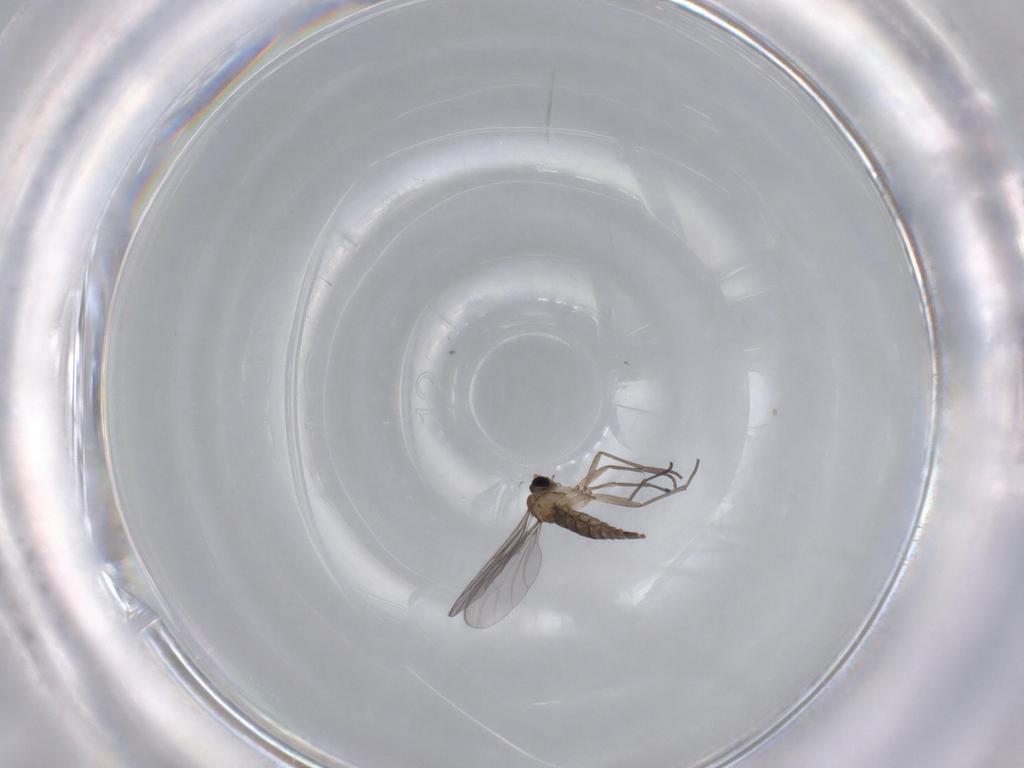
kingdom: Animalia
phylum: Arthropoda
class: Insecta
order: Diptera
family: Sciaridae
